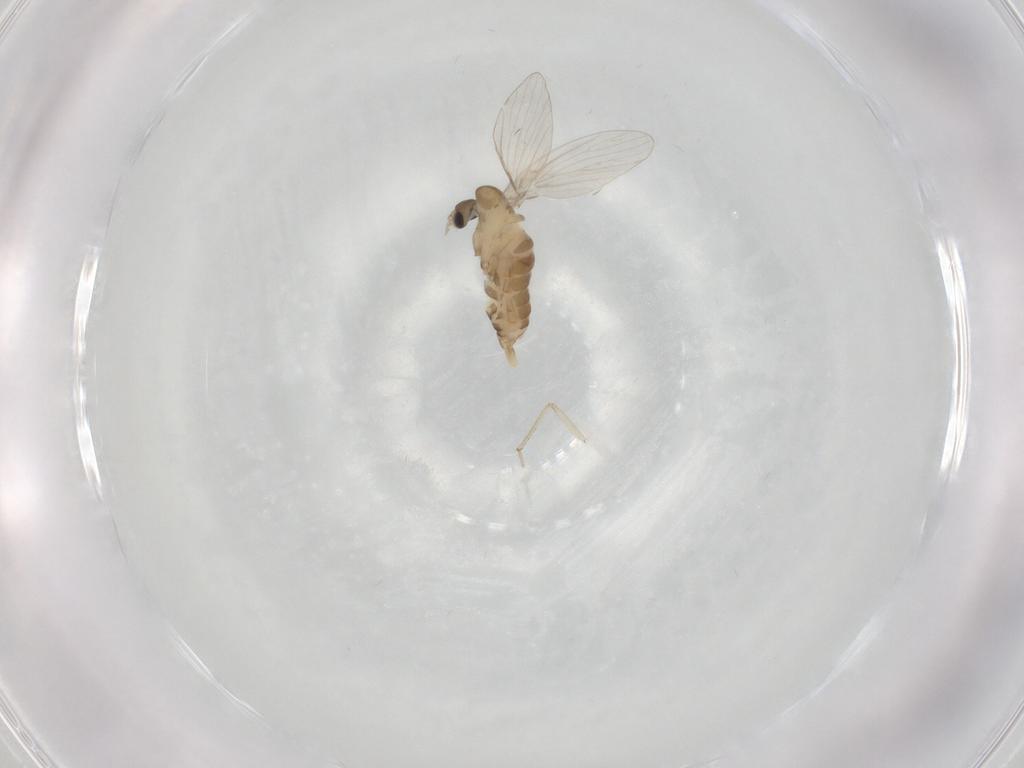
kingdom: Animalia
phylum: Arthropoda
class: Insecta
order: Diptera
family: Psychodidae
